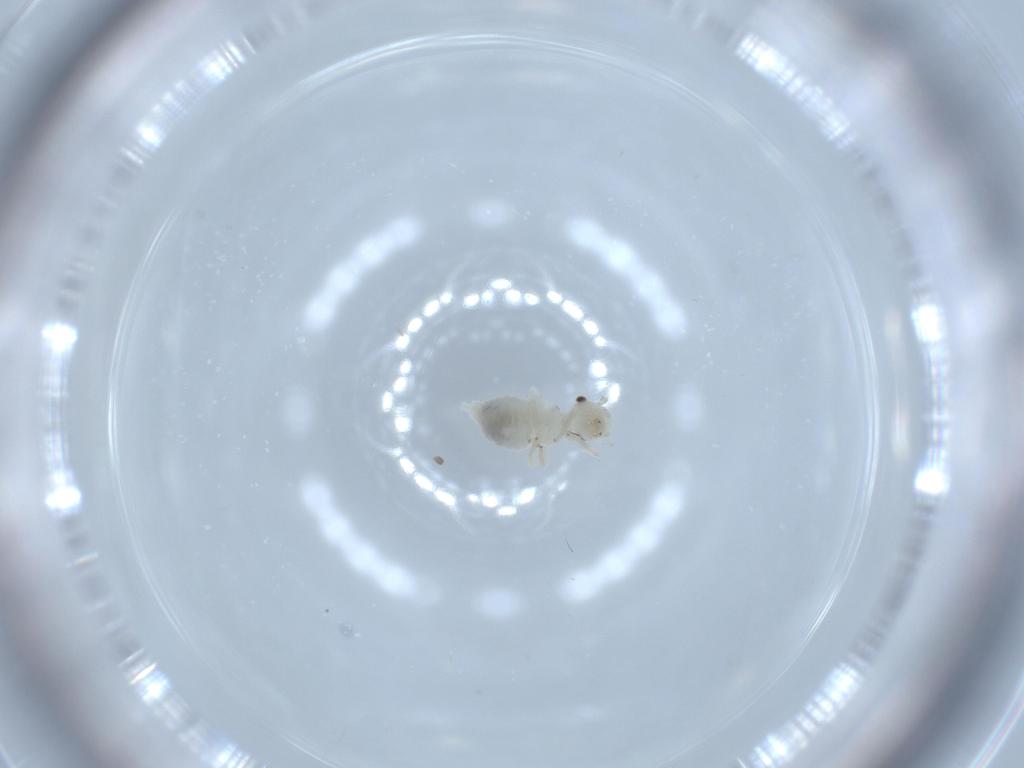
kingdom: Animalia
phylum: Arthropoda
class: Insecta
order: Psocodea
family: Caeciliusidae
